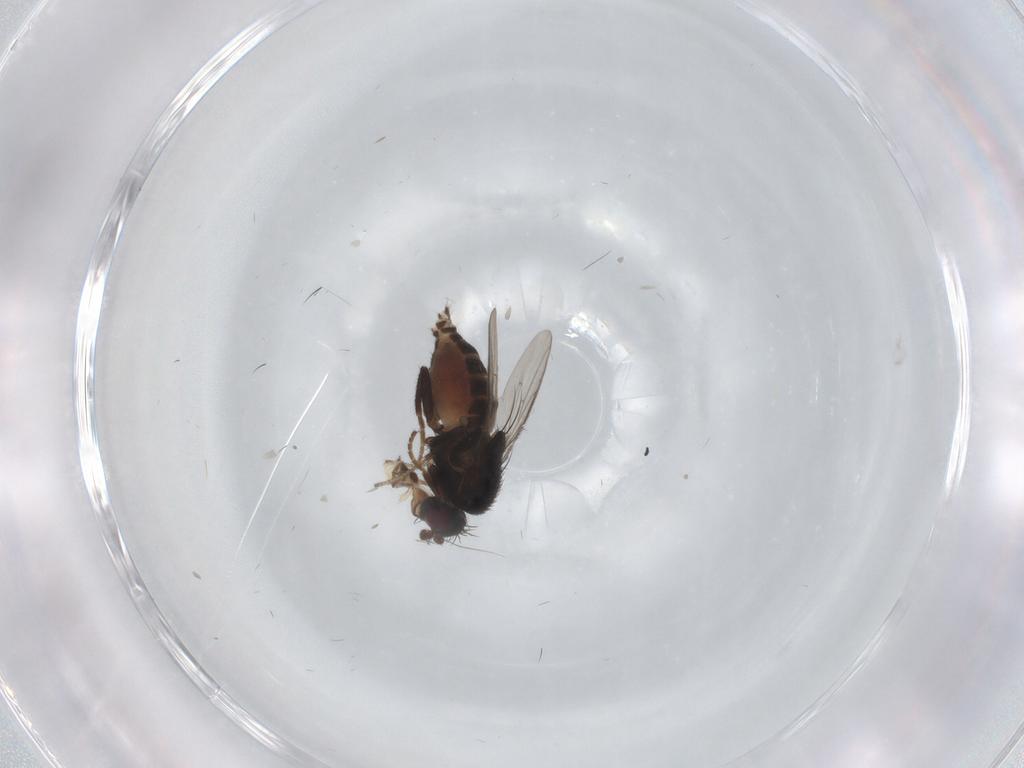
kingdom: Animalia
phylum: Arthropoda
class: Insecta
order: Diptera
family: Sphaeroceridae
